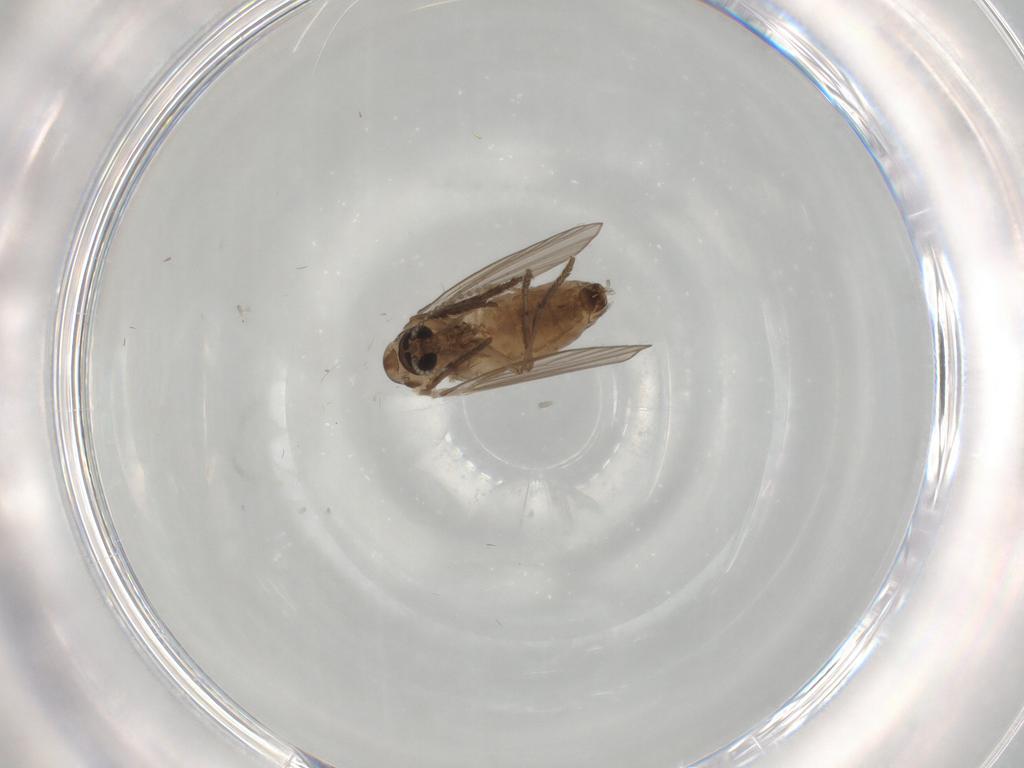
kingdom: Animalia
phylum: Arthropoda
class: Insecta
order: Diptera
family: Psychodidae
